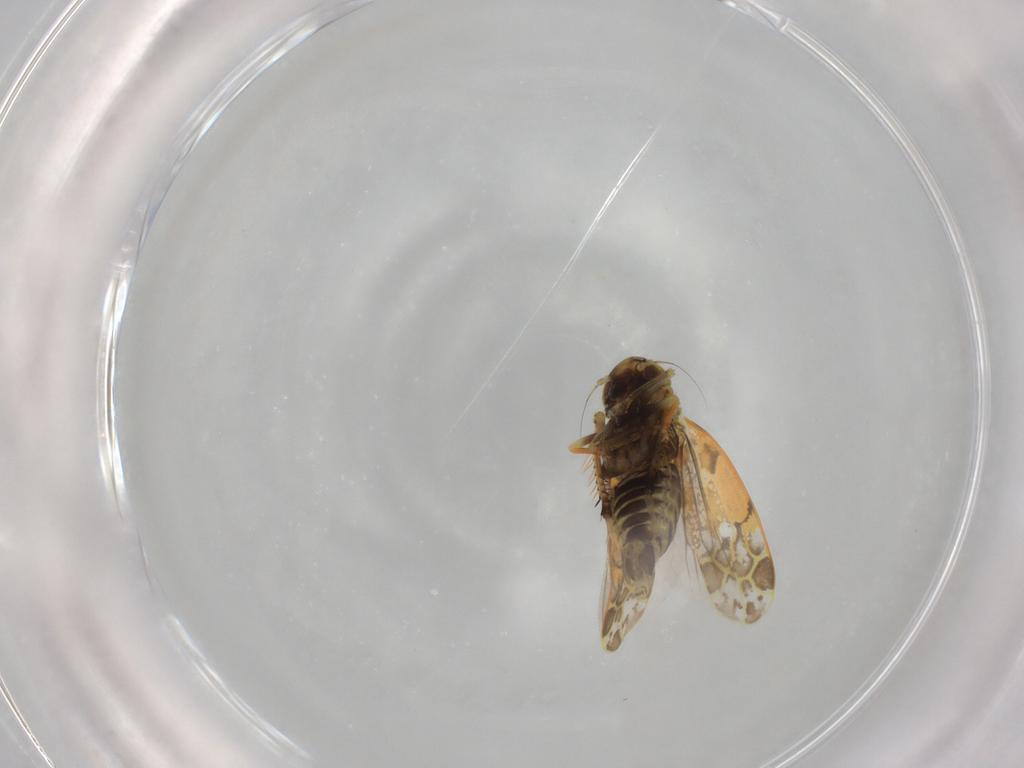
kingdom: Animalia
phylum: Arthropoda
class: Insecta
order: Hemiptera
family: Cicadellidae
